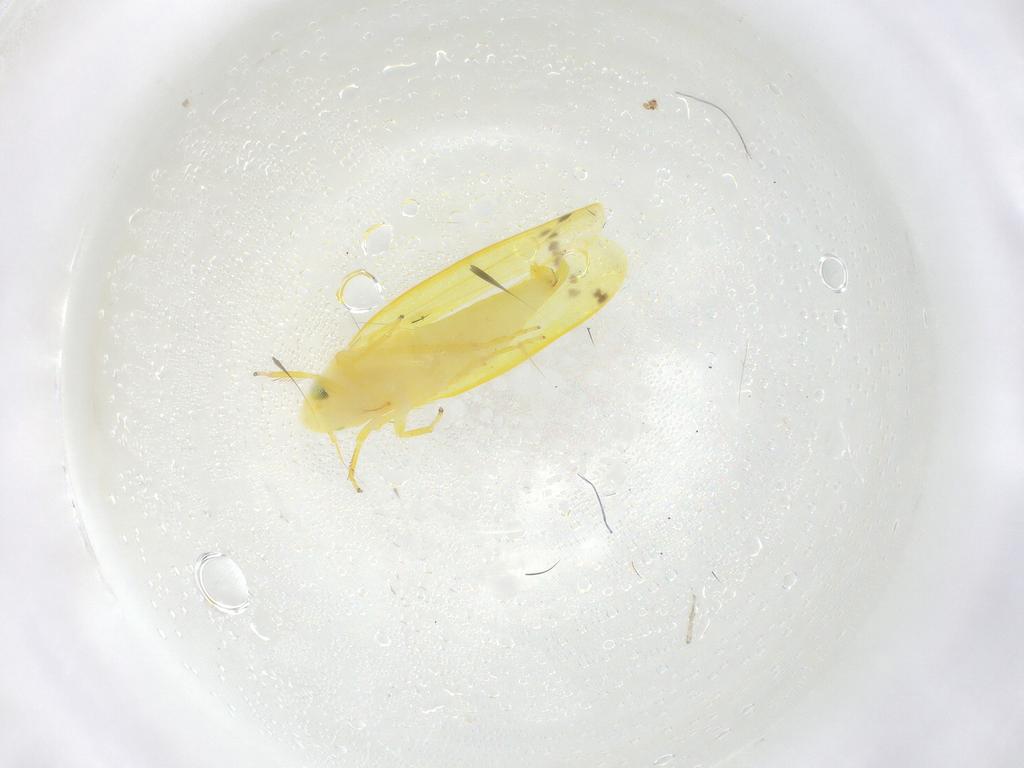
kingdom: Animalia
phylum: Arthropoda
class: Insecta
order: Hemiptera
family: Cicadellidae
